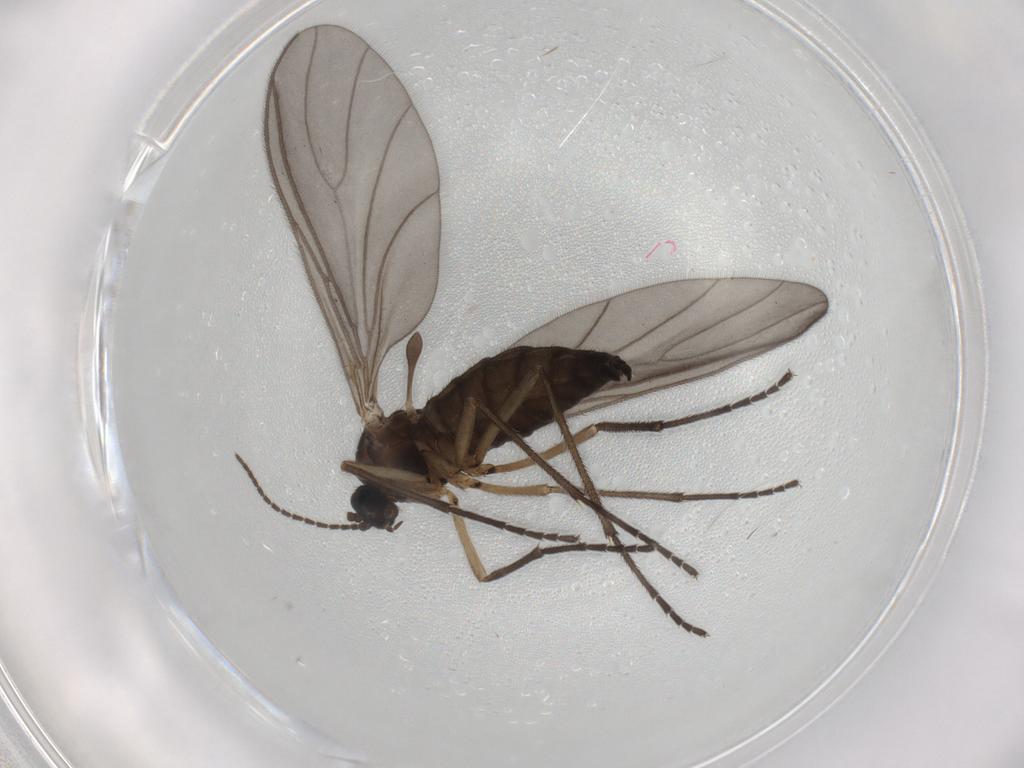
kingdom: Animalia
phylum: Arthropoda
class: Insecta
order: Diptera
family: Sciaridae
